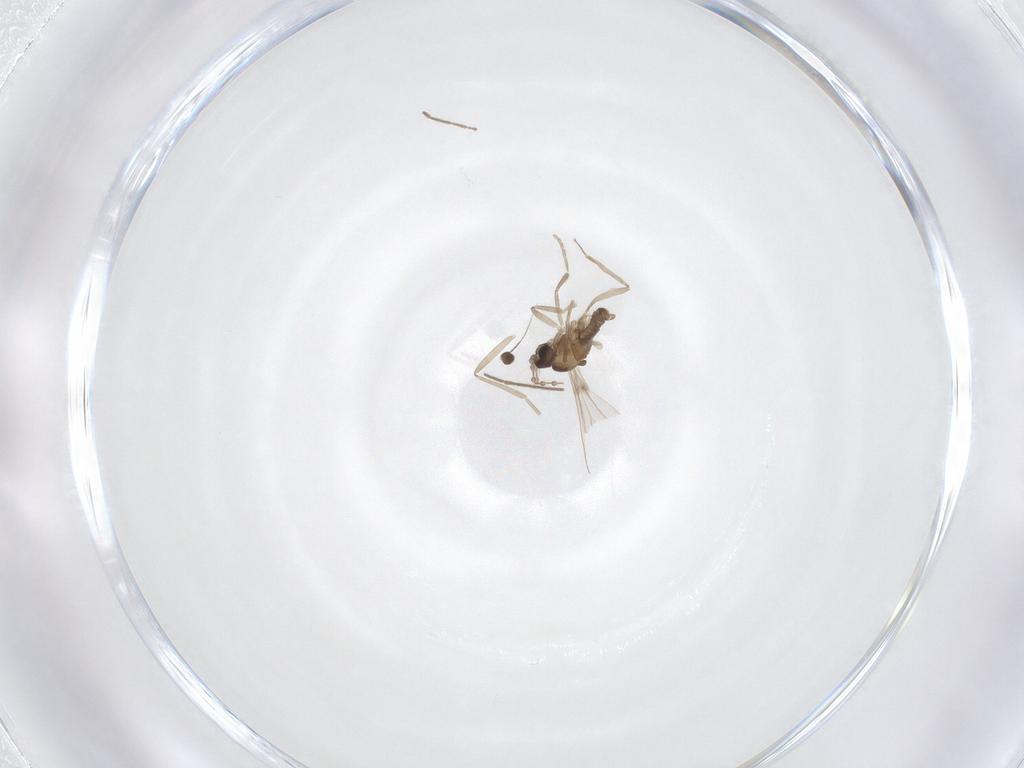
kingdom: Animalia
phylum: Arthropoda
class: Insecta
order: Diptera
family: Cecidomyiidae
